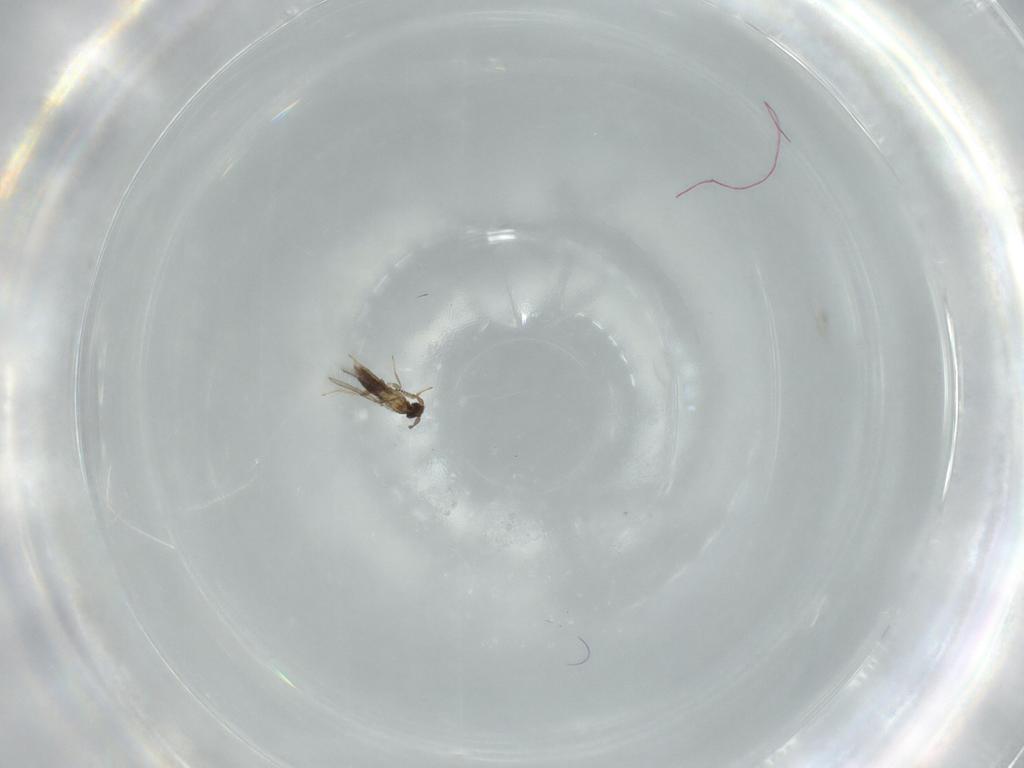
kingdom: Animalia
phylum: Arthropoda
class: Insecta
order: Hymenoptera
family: Mymaridae
